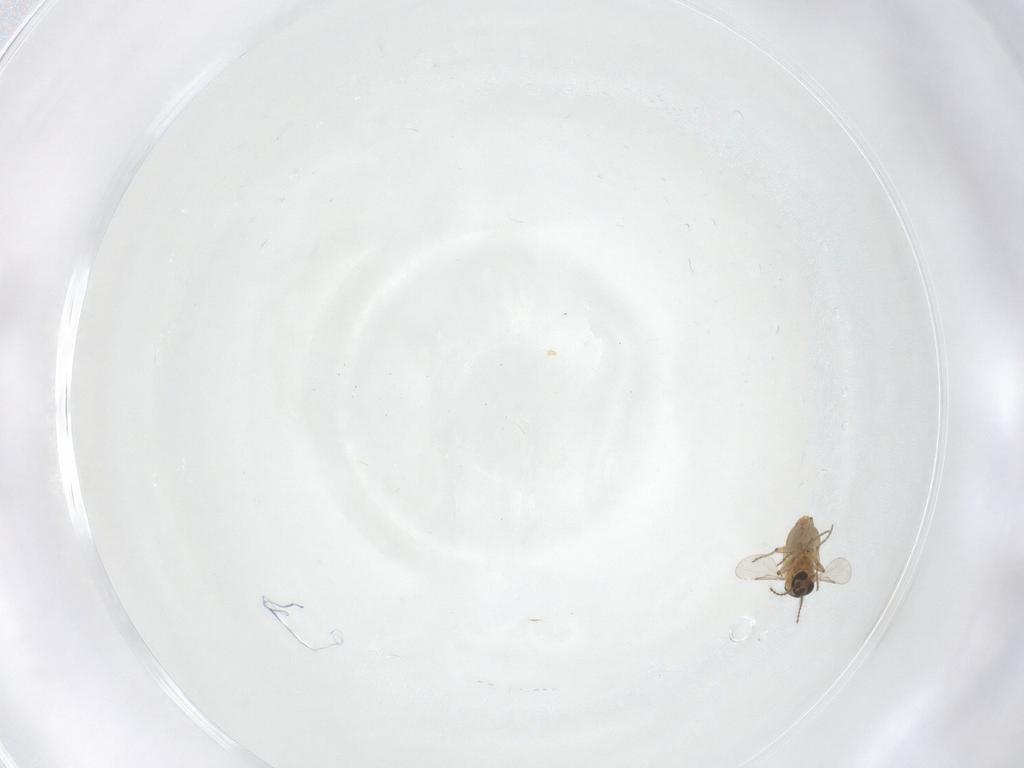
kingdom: Animalia
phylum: Arthropoda
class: Insecta
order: Diptera
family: Ceratopogonidae
